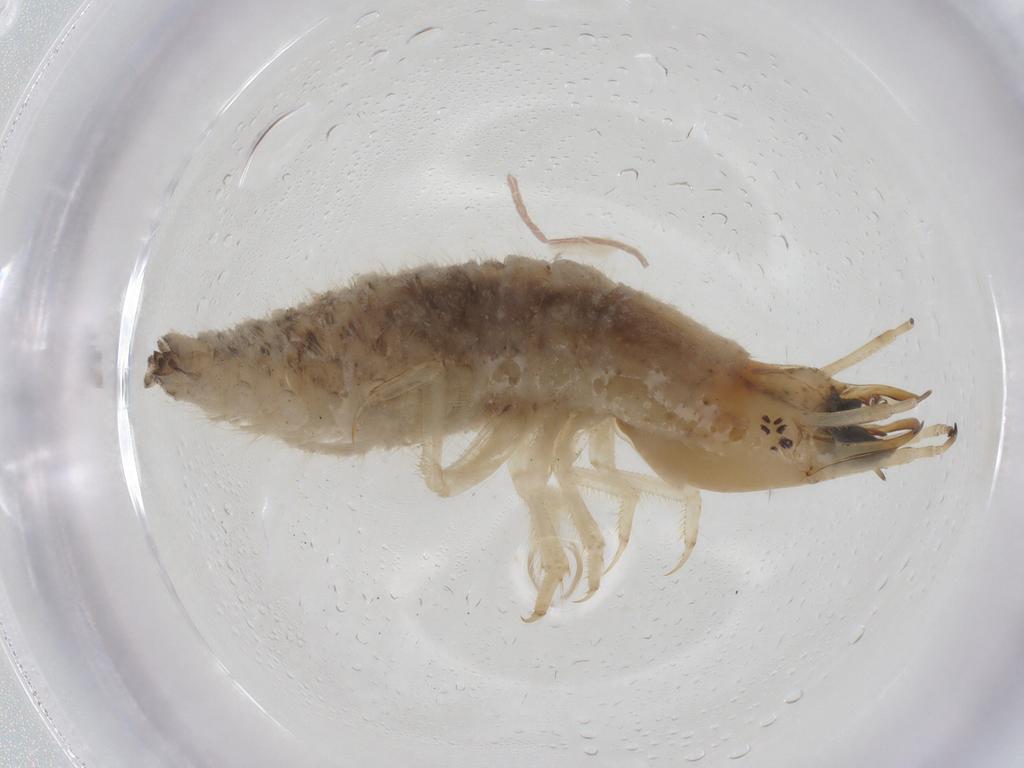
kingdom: Animalia
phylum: Arthropoda
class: Insecta
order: Coleoptera
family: Hydrophilidae
